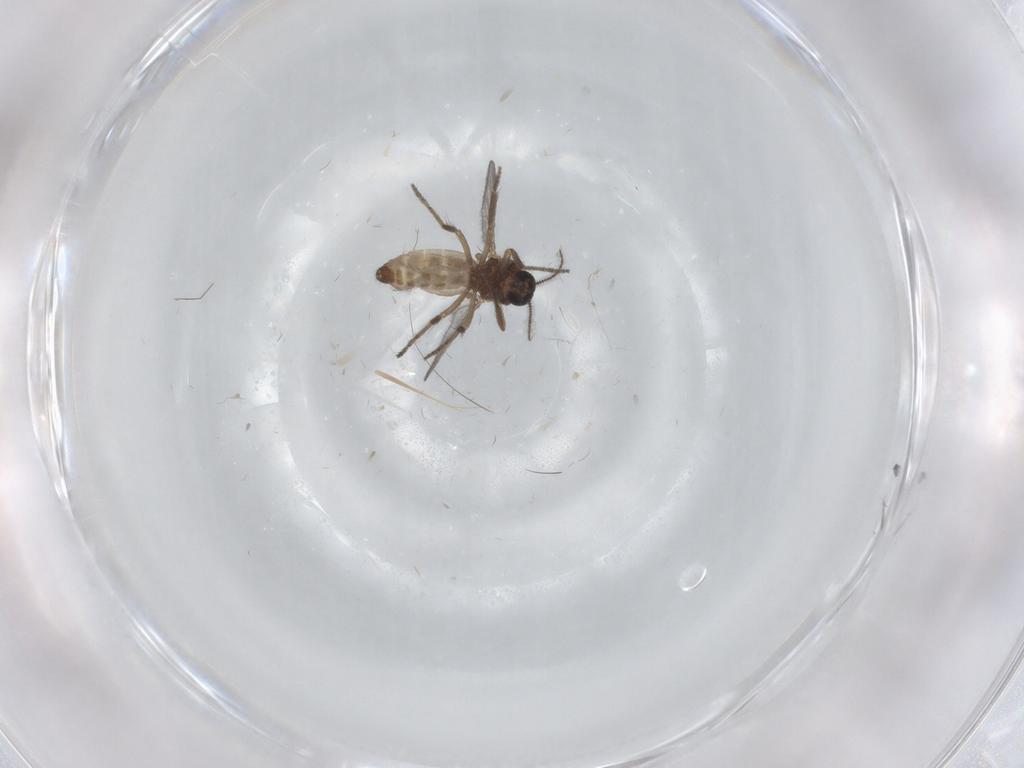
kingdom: Animalia
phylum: Arthropoda
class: Insecta
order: Diptera
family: Ceratopogonidae
